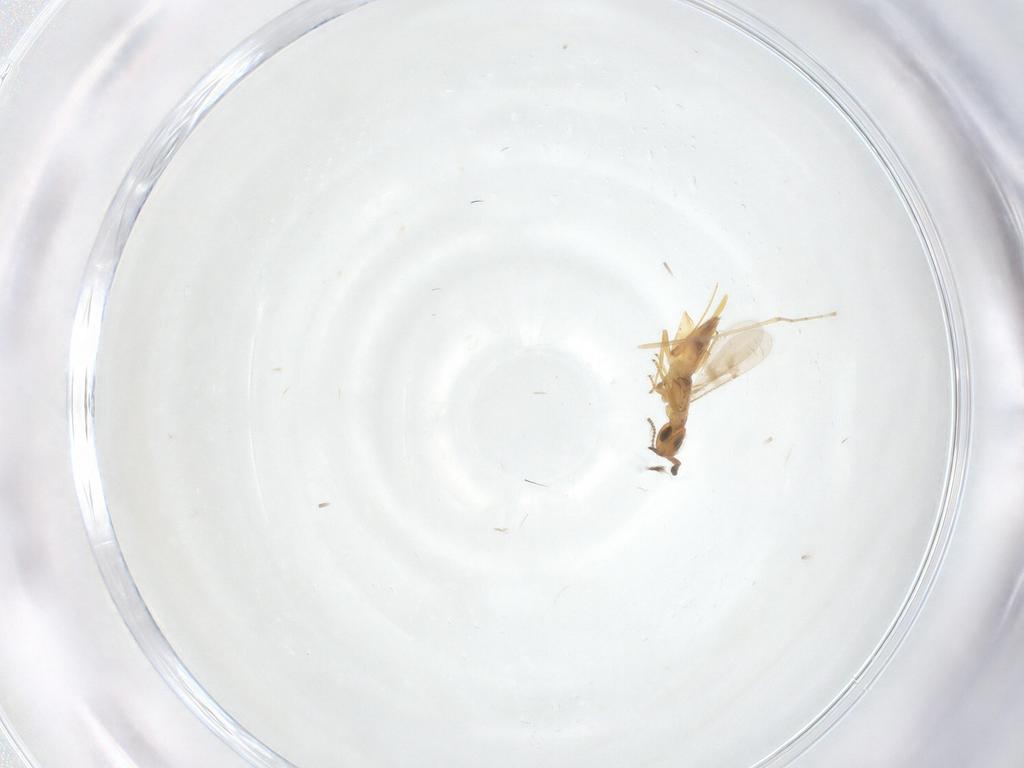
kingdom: Animalia
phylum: Arthropoda
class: Insecta
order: Hymenoptera
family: Encyrtidae
